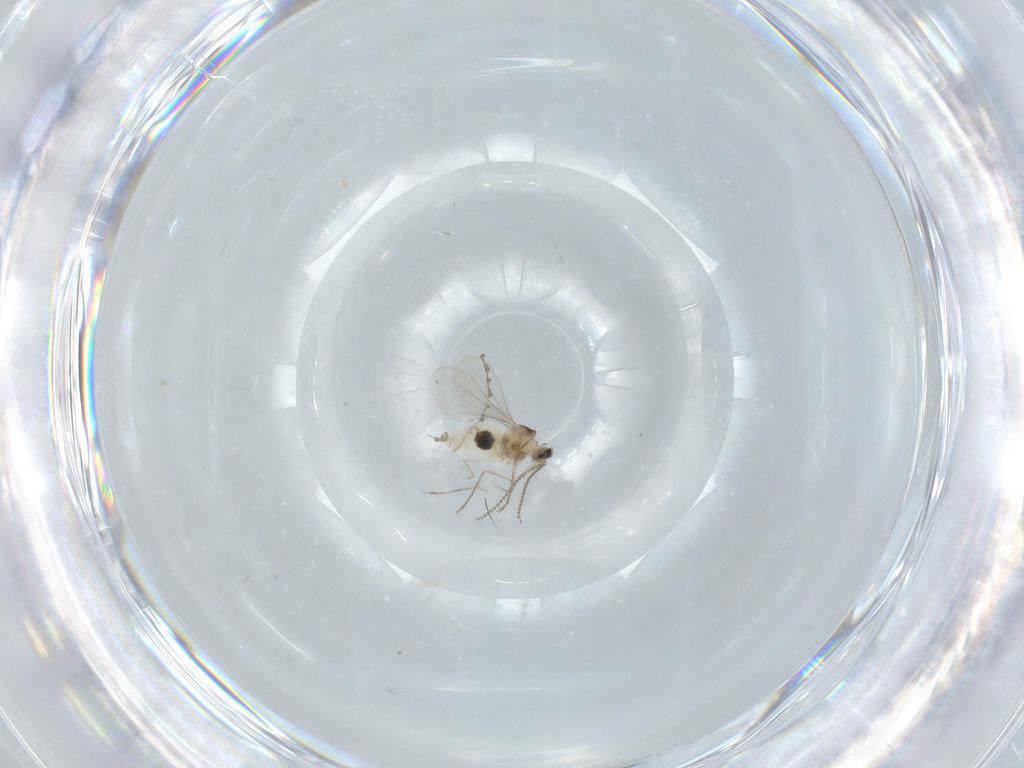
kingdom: Animalia
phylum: Arthropoda
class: Insecta
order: Diptera
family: Cecidomyiidae
